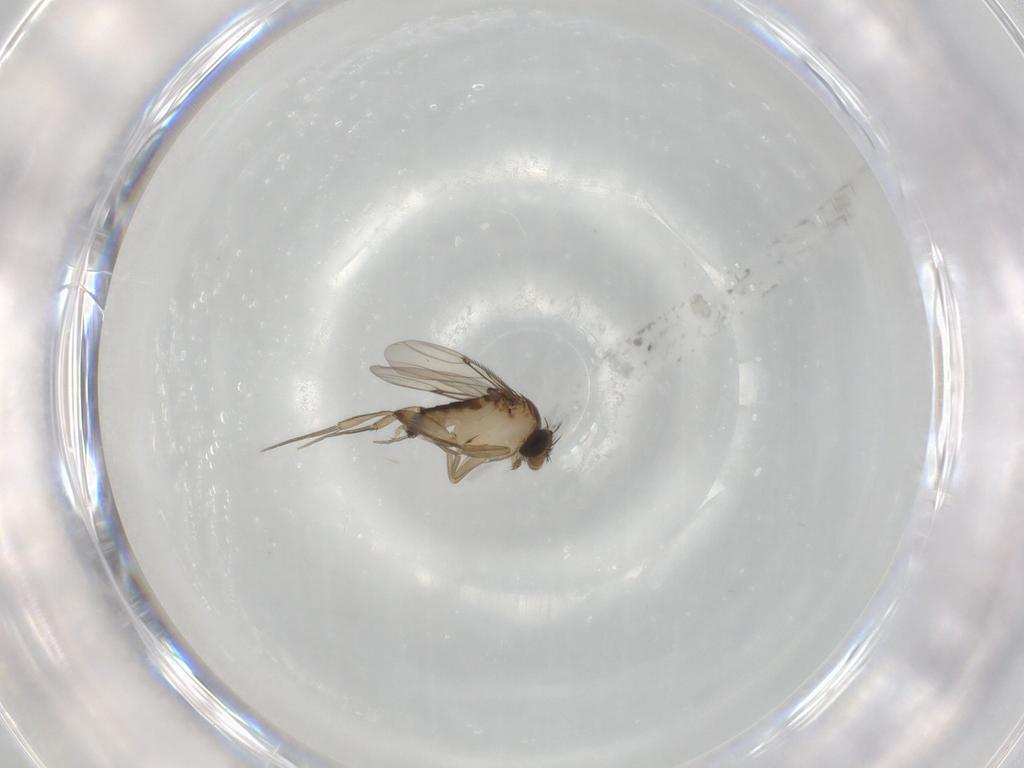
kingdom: Animalia
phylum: Arthropoda
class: Insecta
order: Diptera
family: Phoridae
